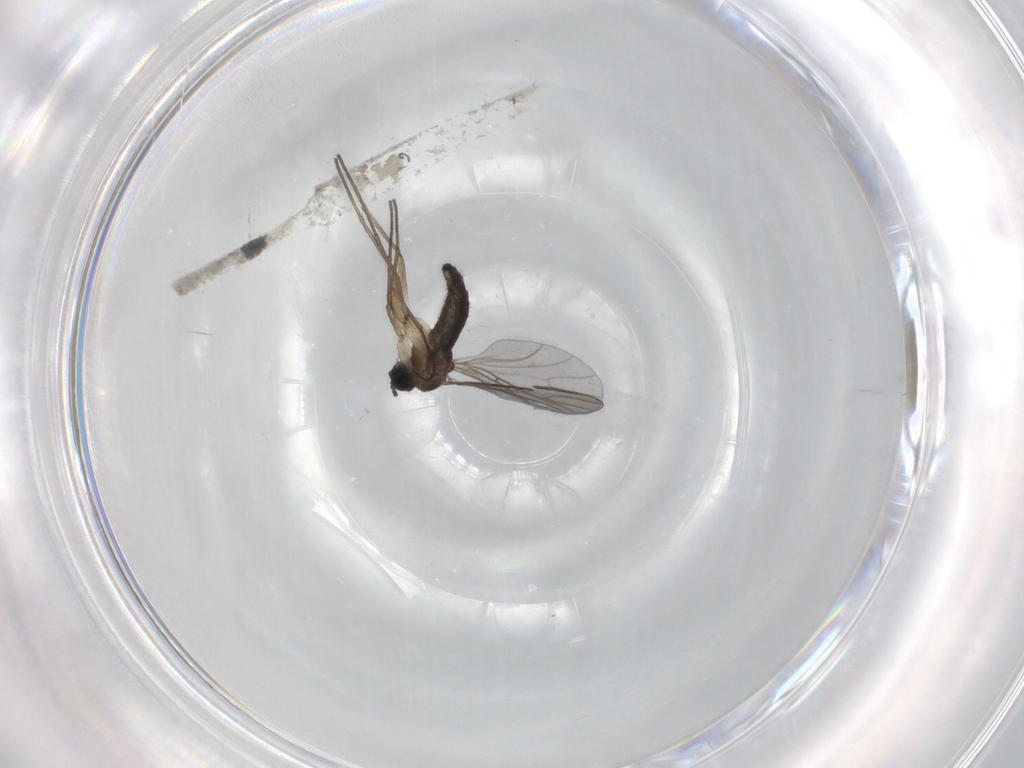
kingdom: Animalia
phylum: Arthropoda
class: Insecta
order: Diptera
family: Sciaridae
